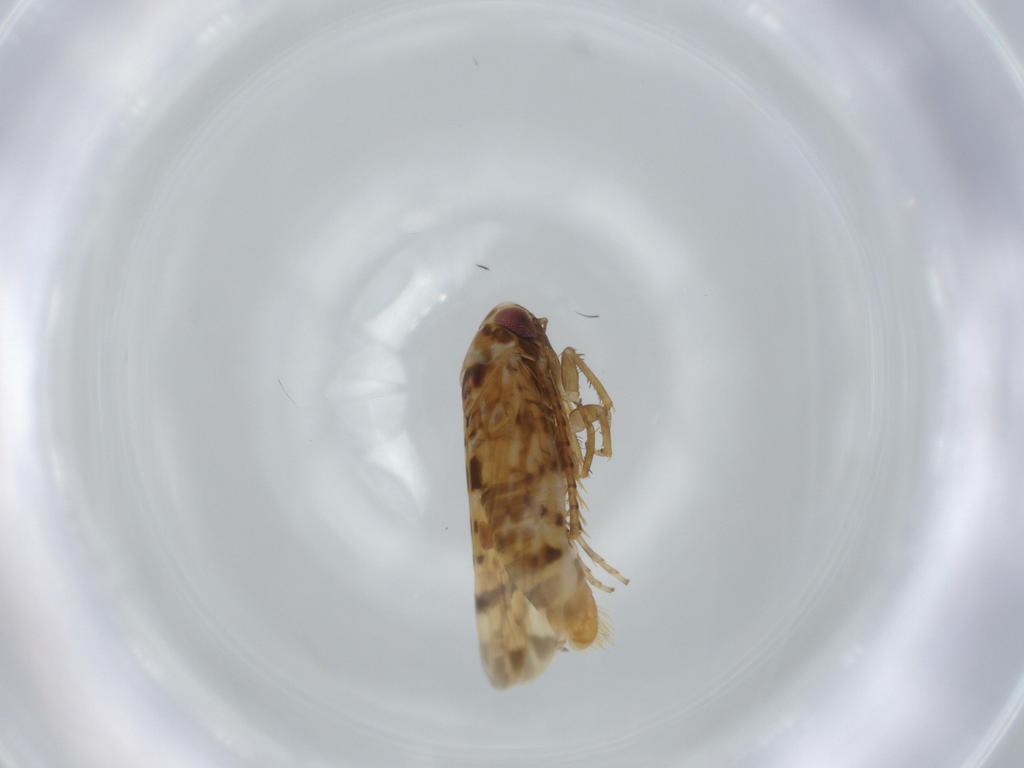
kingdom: Animalia
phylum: Arthropoda
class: Insecta
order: Hemiptera
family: Cicadellidae
